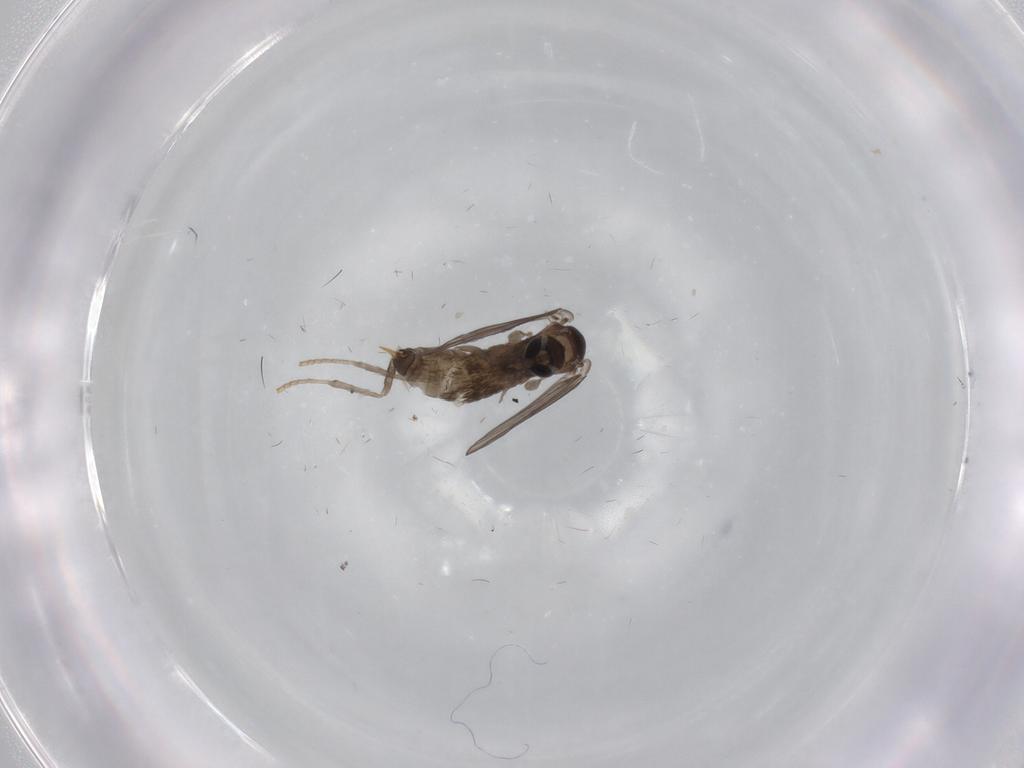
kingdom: Animalia
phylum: Arthropoda
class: Insecta
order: Diptera
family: Psychodidae
